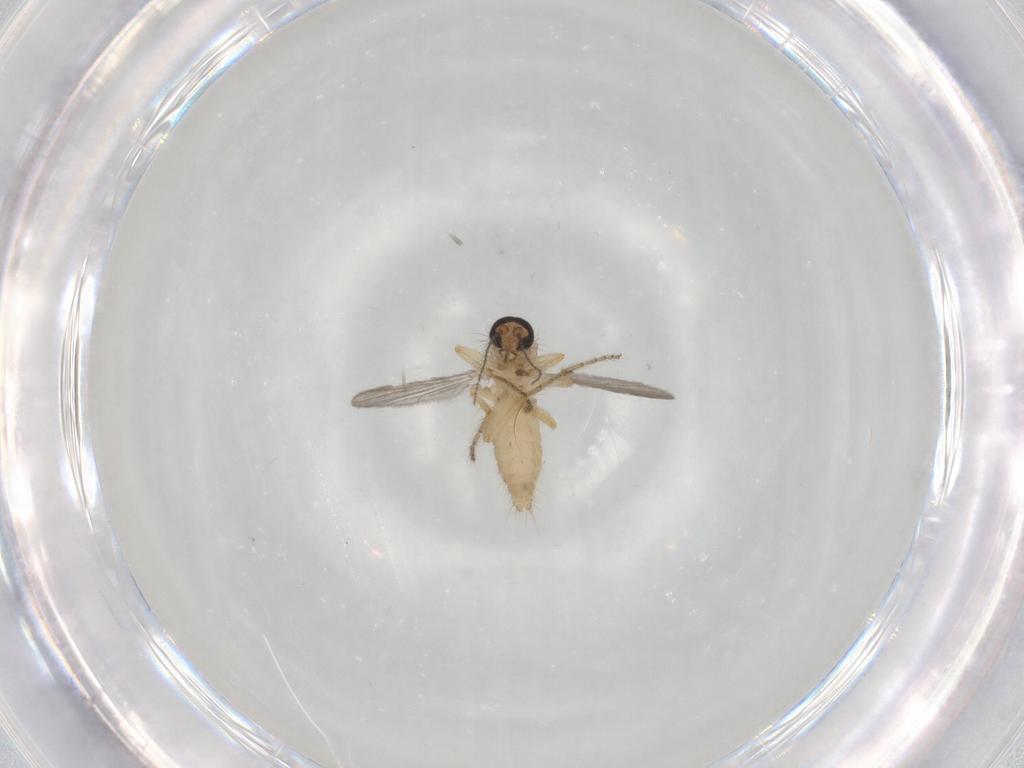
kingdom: Animalia
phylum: Arthropoda
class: Insecta
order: Diptera
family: Ceratopogonidae
